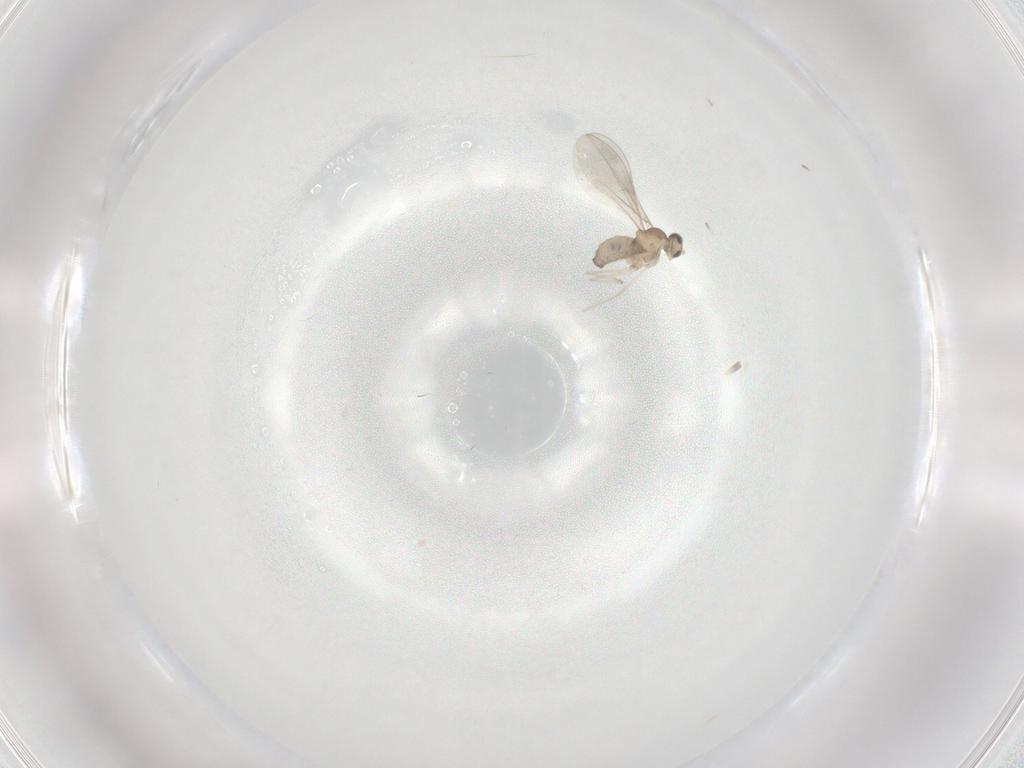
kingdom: Animalia
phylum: Arthropoda
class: Insecta
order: Diptera
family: Cecidomyiidae
